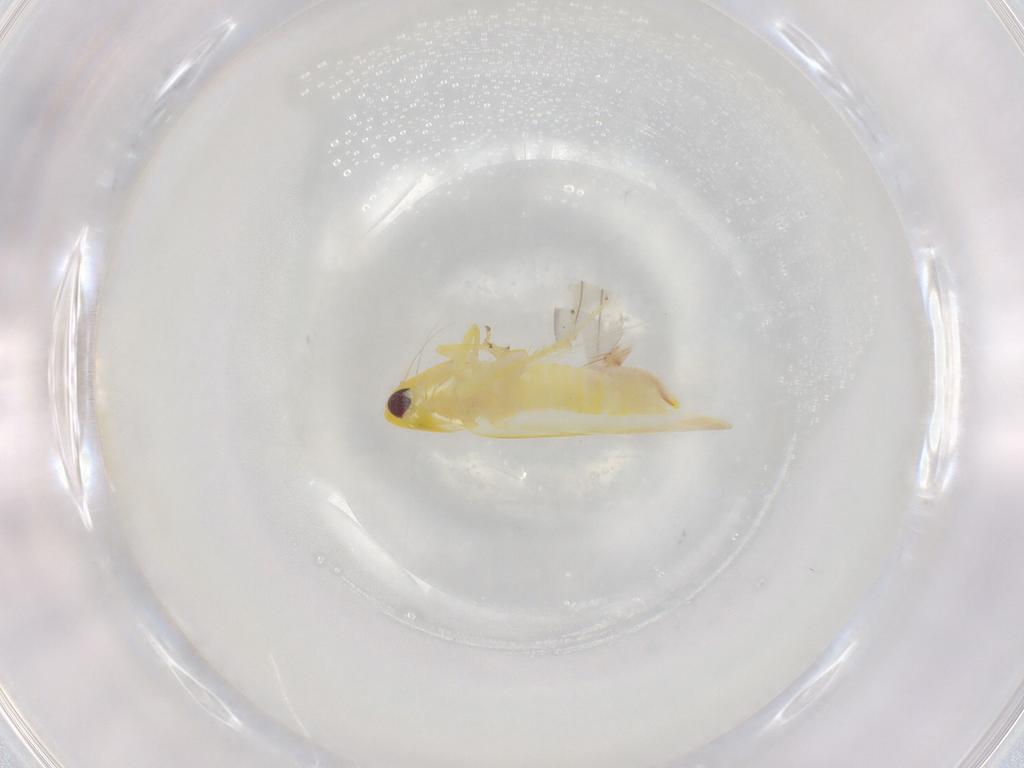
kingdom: Animalia
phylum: Arthropoda
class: Insecta
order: Hemiptera
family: Cicadellidae
